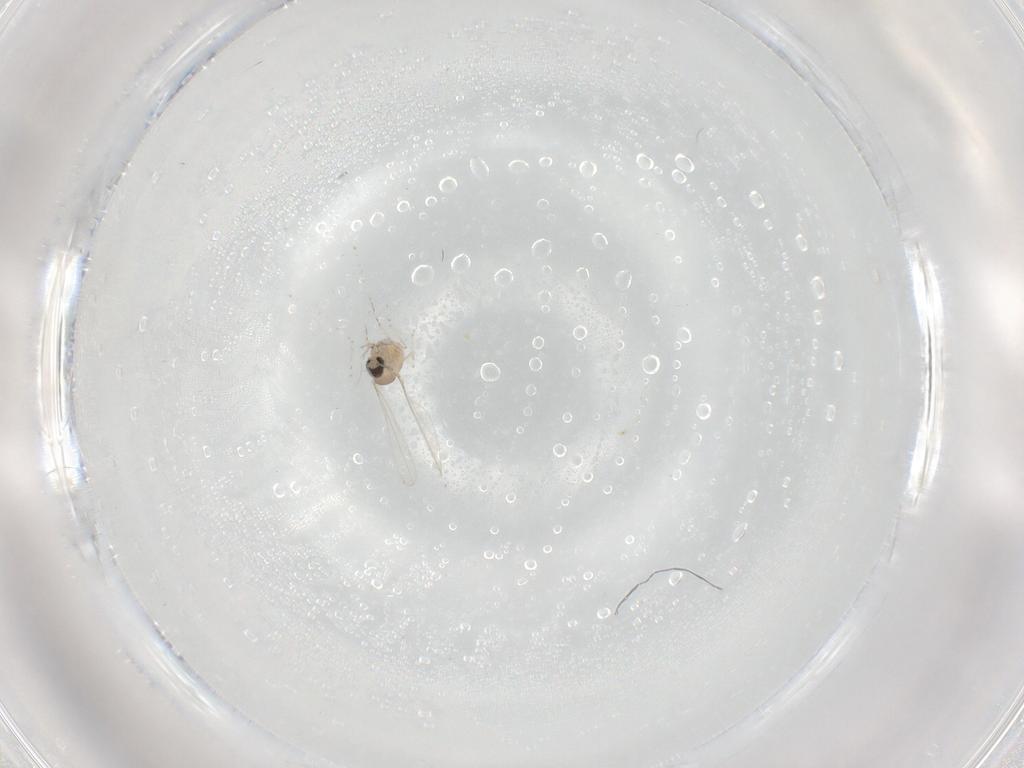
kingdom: Animalia
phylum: Arthropoda
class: Insecta
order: Diptera
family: Cecidomyiidae
